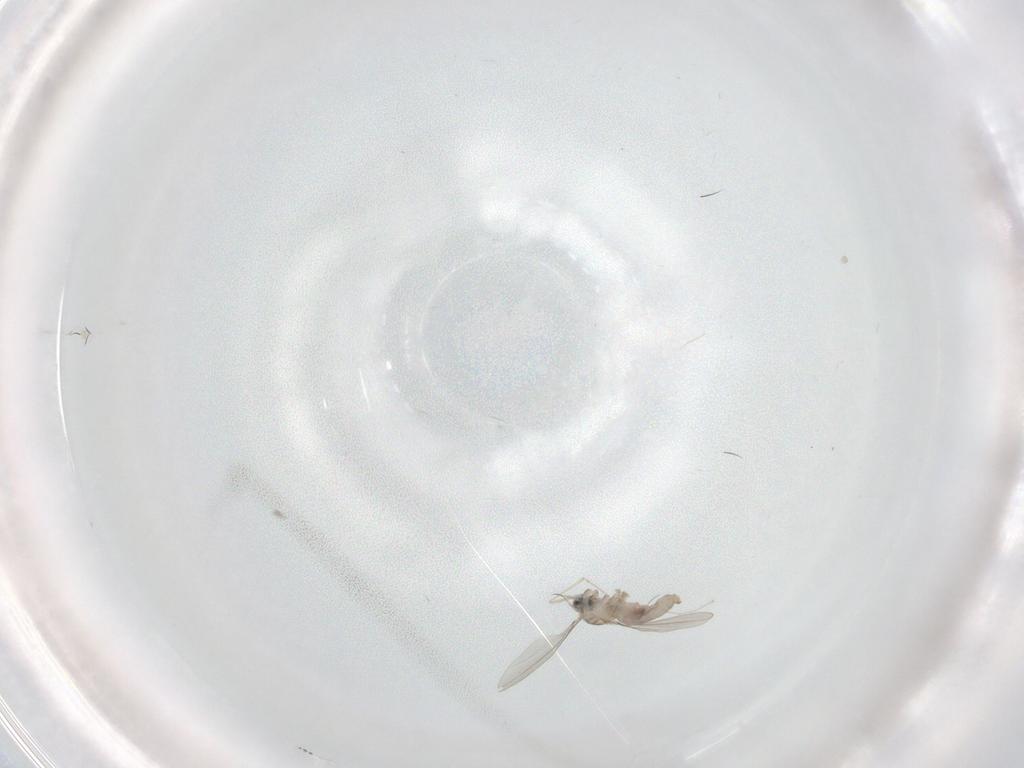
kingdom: Animalia
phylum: Arthropoda
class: Insecta
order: Diptera
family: Cecidomyiidae
